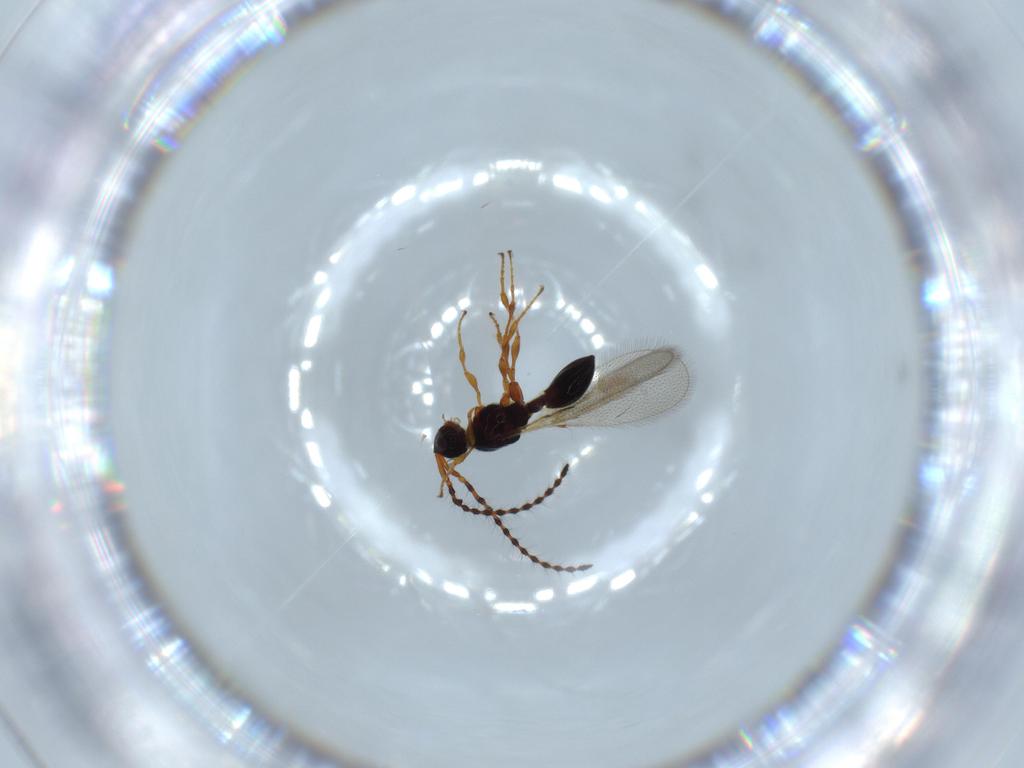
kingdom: Animalia
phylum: Arthropoda
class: Insecta
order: Hymenoptera
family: Diapriidae
